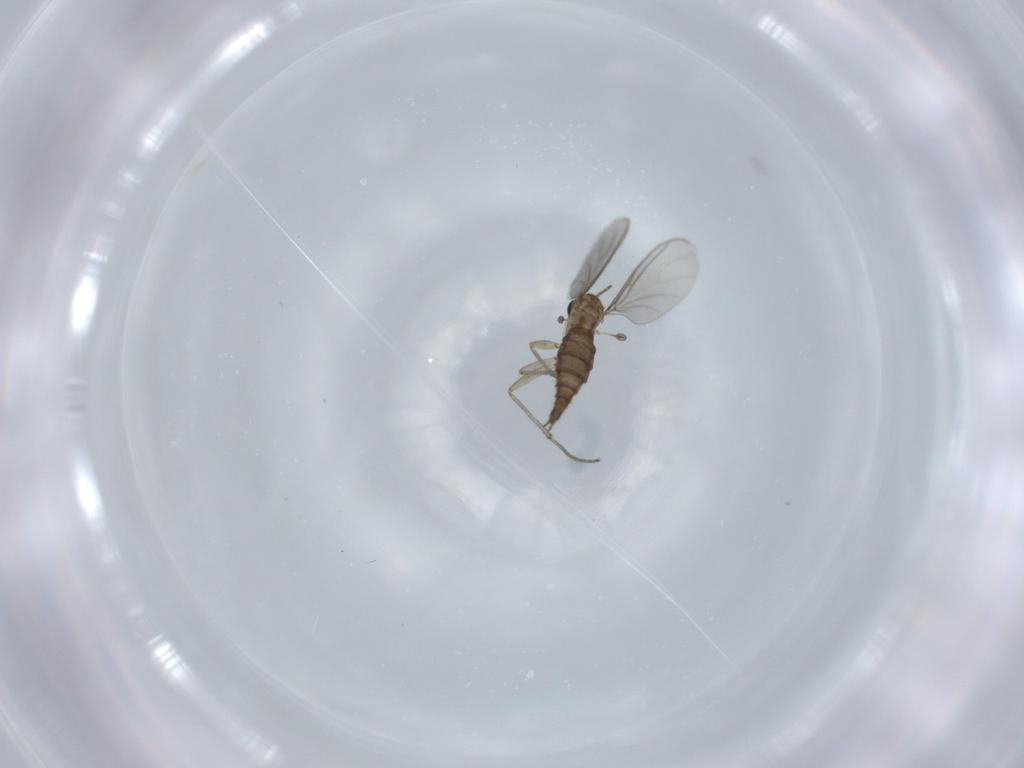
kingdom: Animalia
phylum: Arthropoda
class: Insecta
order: Diptera
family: Sciaridae
